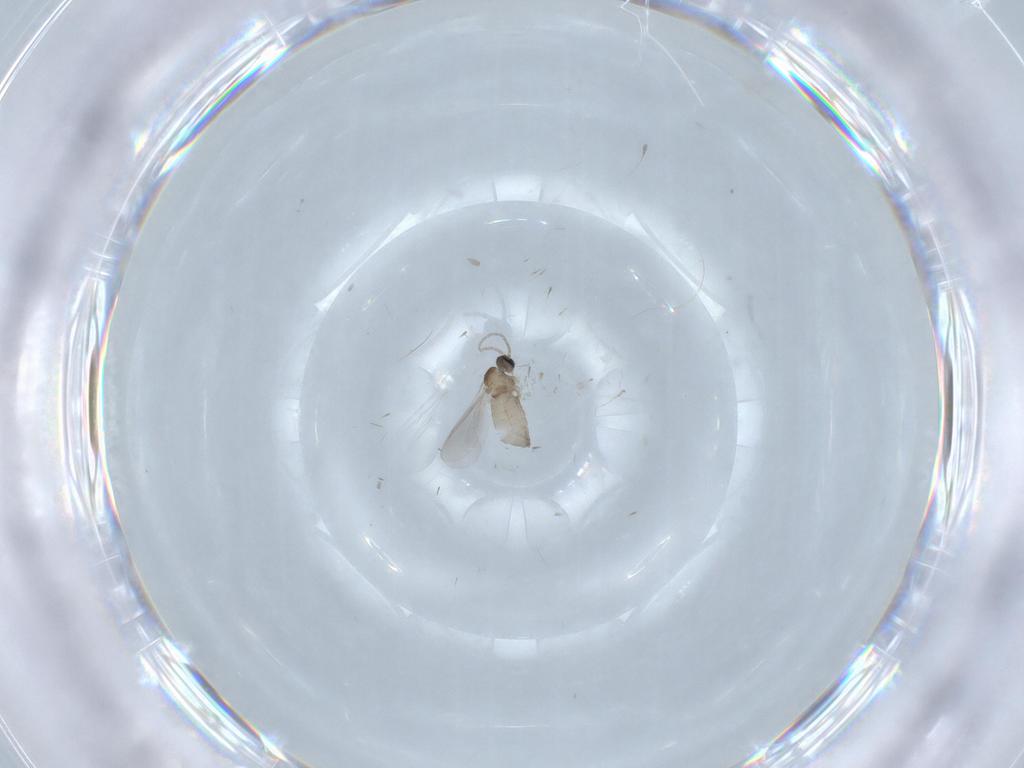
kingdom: Animalia
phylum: Arthropoda
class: Insecta
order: Diptera
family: Cecidomyiidae
